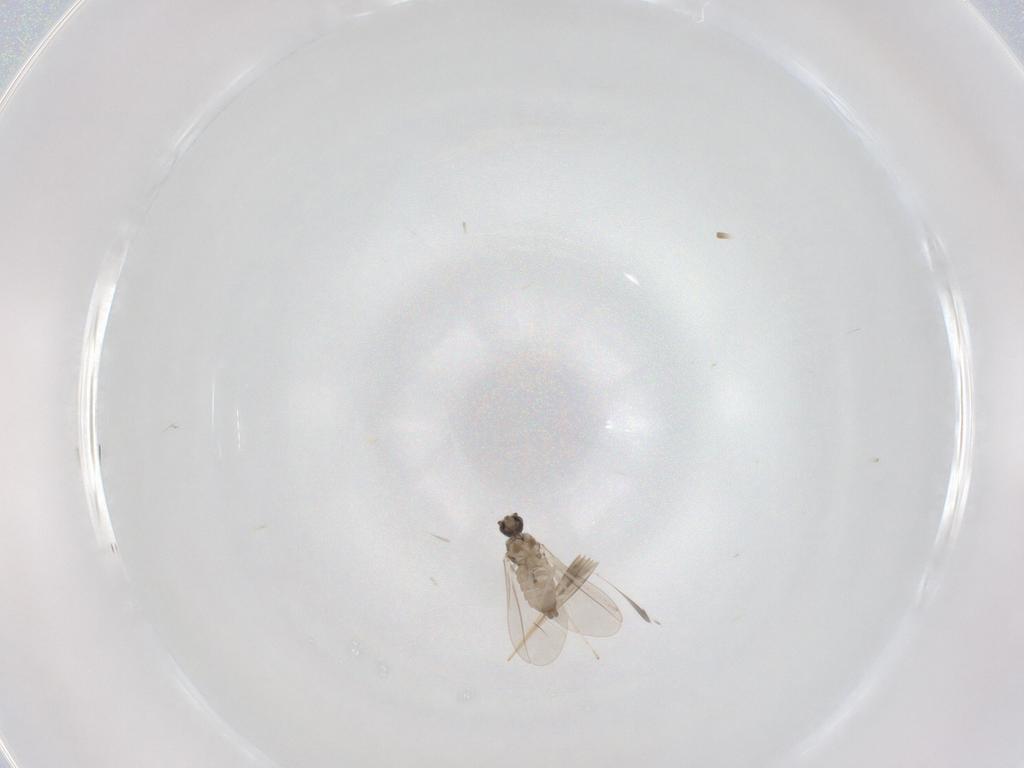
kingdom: Animalia
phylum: Arthropoda
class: Insecta
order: Diptera
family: Cecidomyiidae
